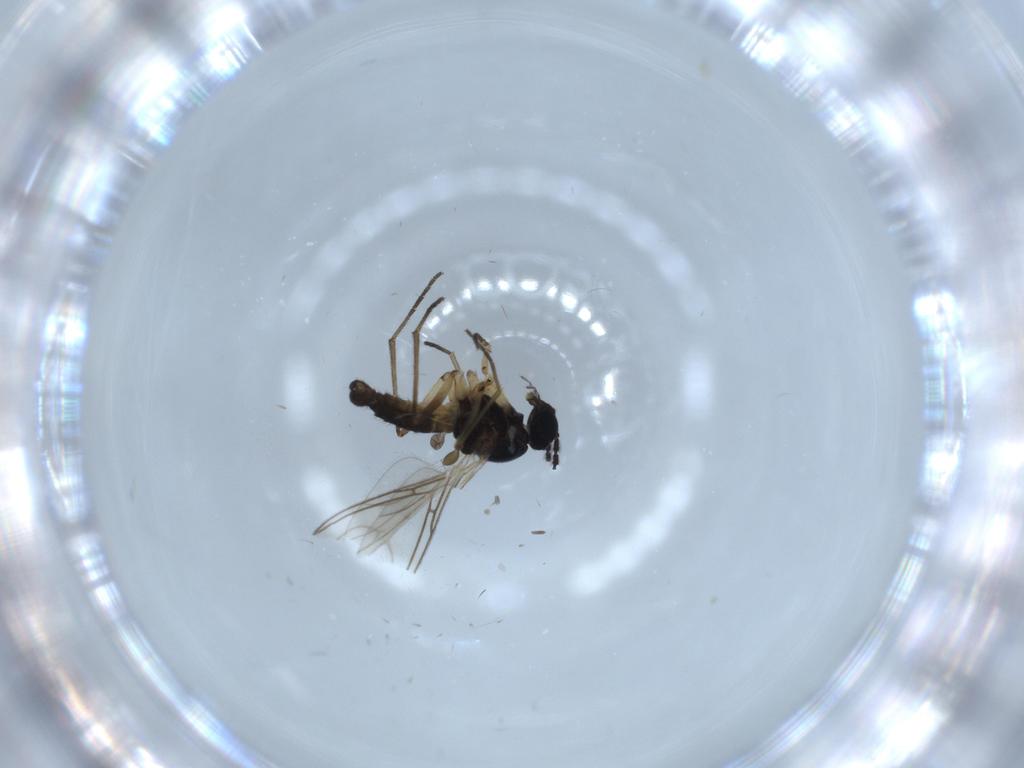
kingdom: Animalia
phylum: Arthropoda
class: Insecta
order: Diptera
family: Sciaridae
